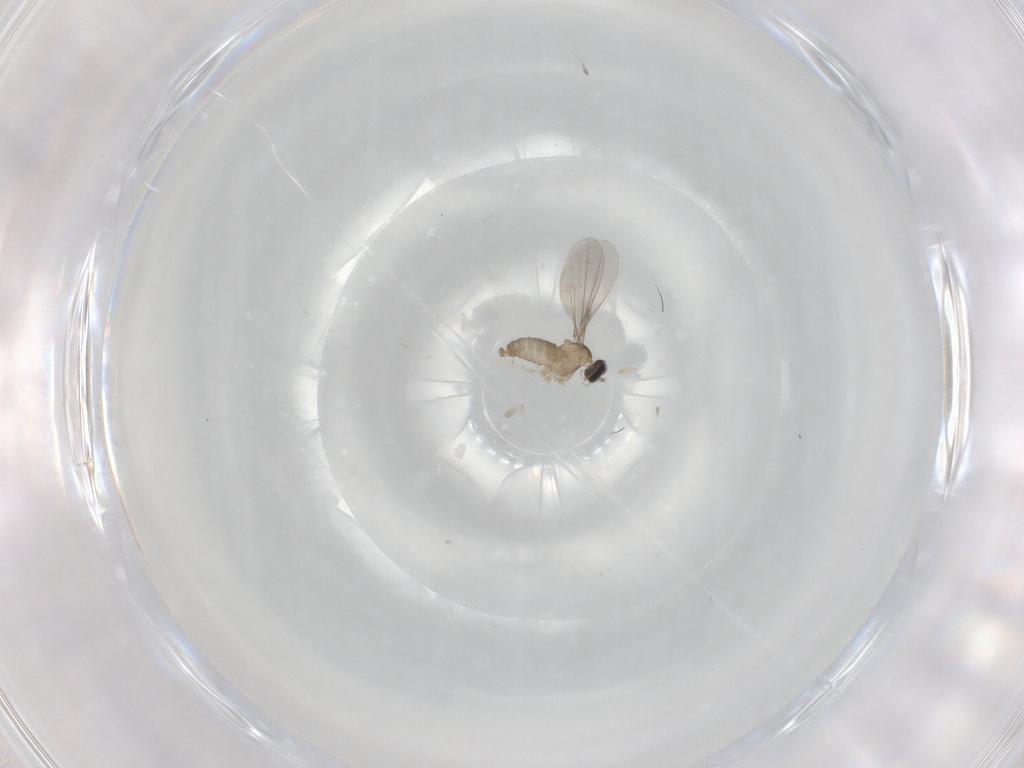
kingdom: Animalia
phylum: Arthropoda
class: Insecta
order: Diptera
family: Cecidomyiidae
